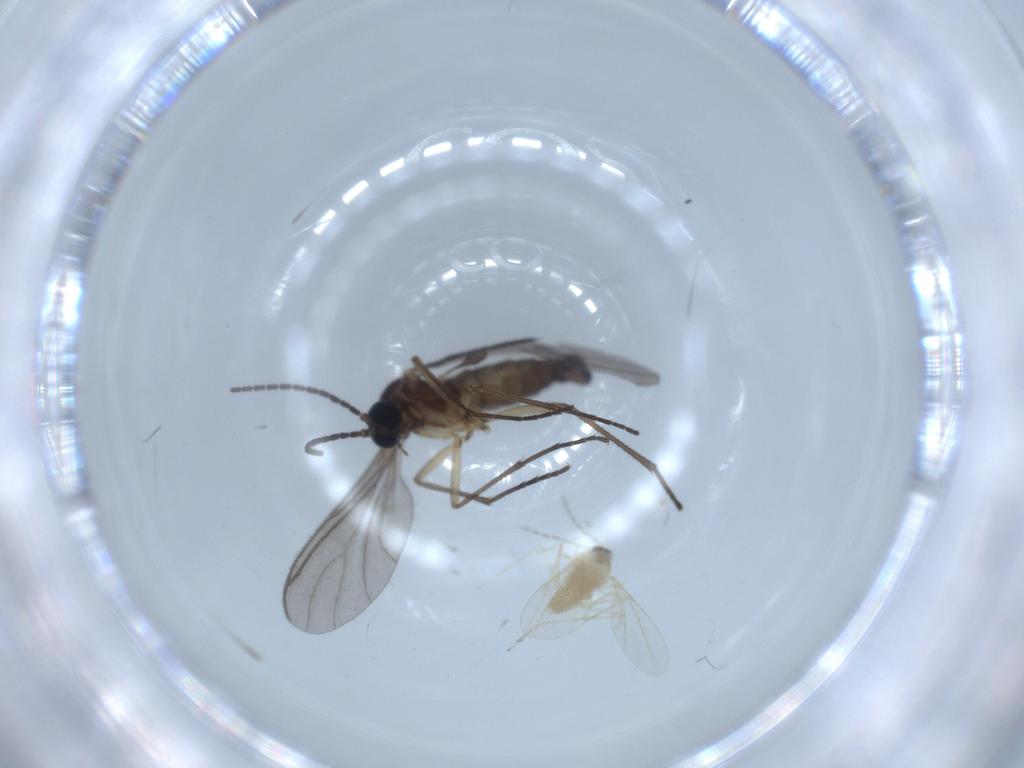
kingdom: Animalia
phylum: Arthropoda
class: Insecta
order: Diptera
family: Cecidomyiidae
